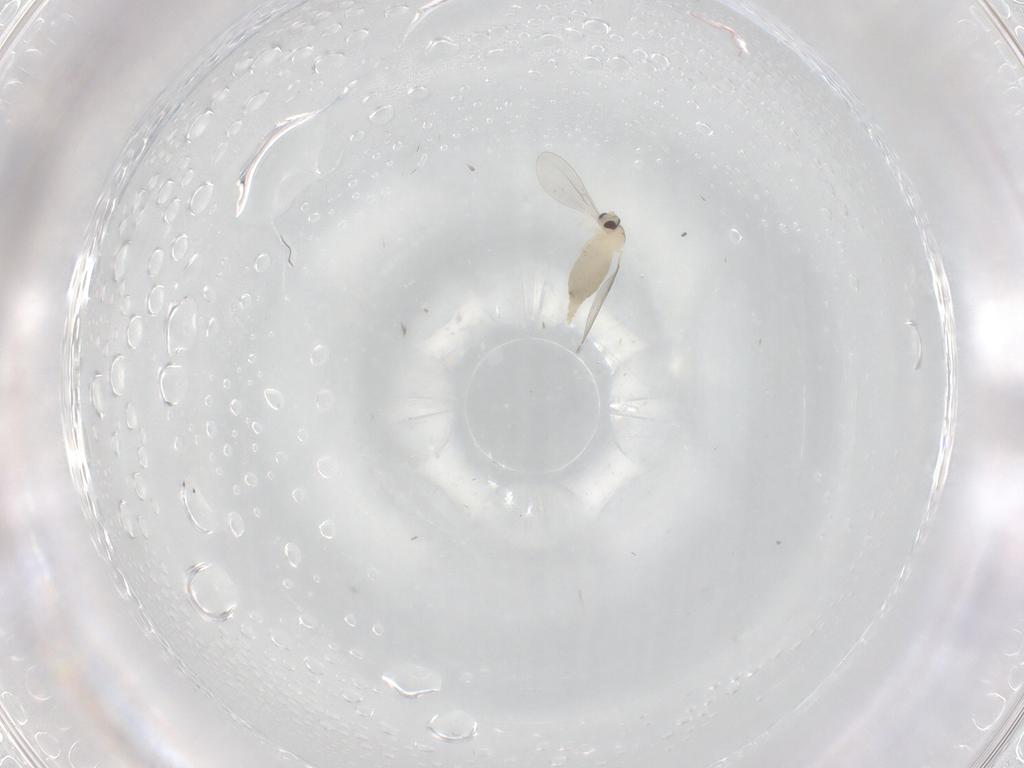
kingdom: Animalia
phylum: Arthropoda
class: Insecta
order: Diptera
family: Cecidomyiidae
